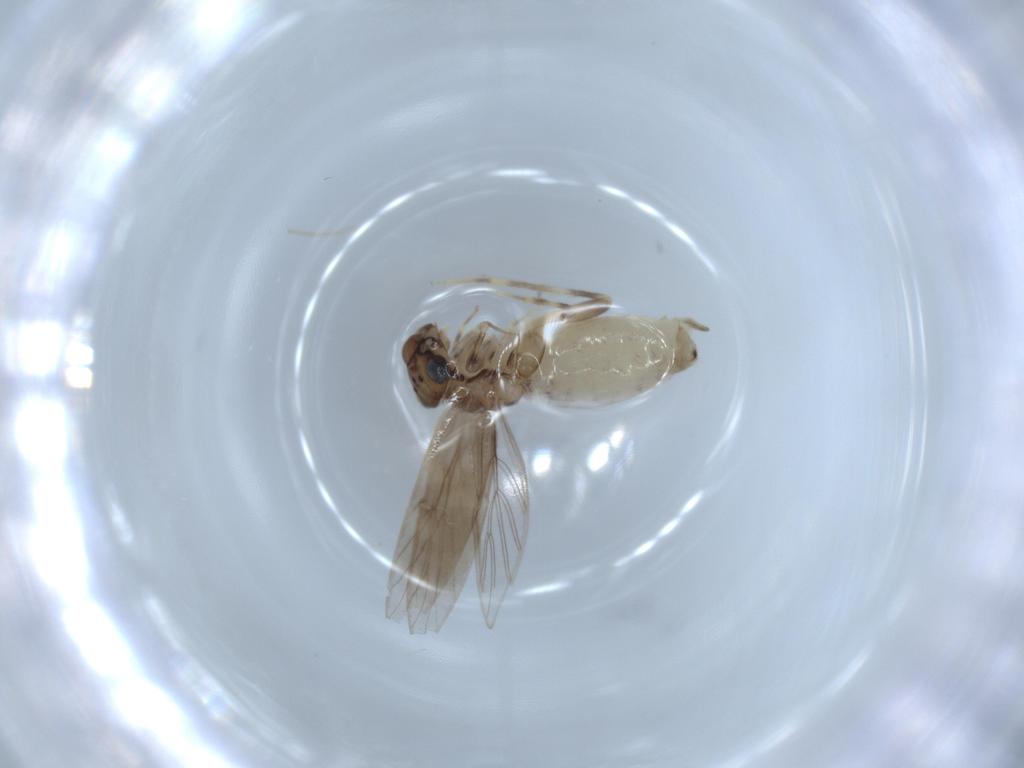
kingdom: Animalia
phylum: Arthropoda
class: Insecta
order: Psocodea
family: Lepidopsocidae
